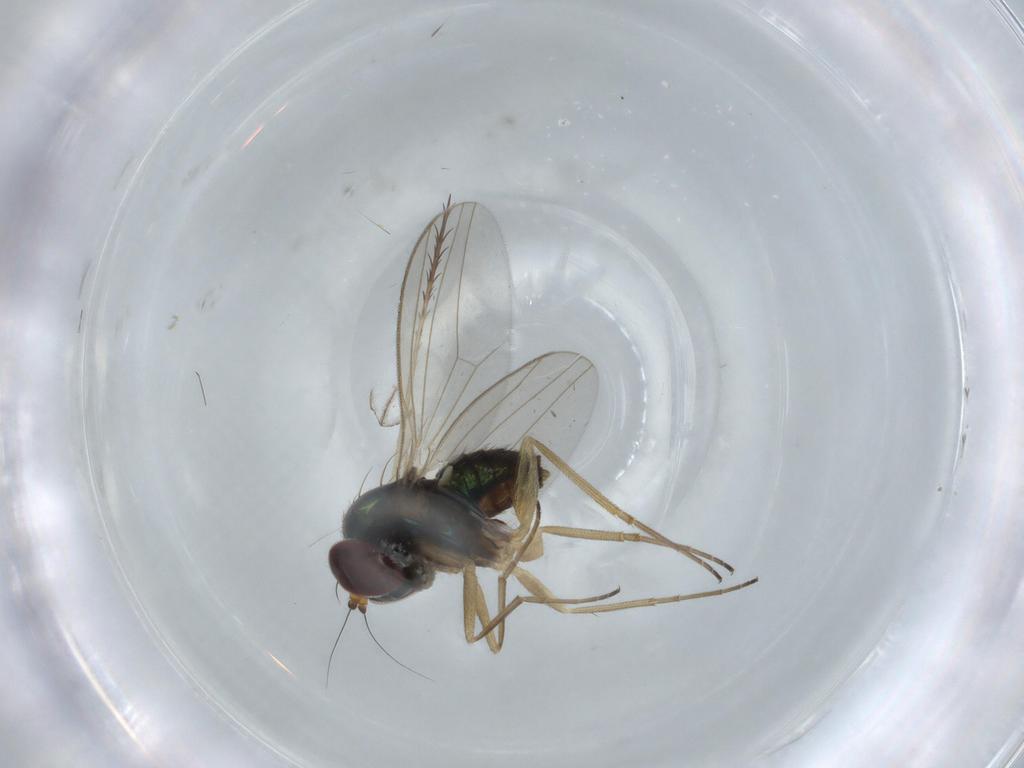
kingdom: Animalia
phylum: Arthropoda
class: Insecta
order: Diptera
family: Dolichopodidae
